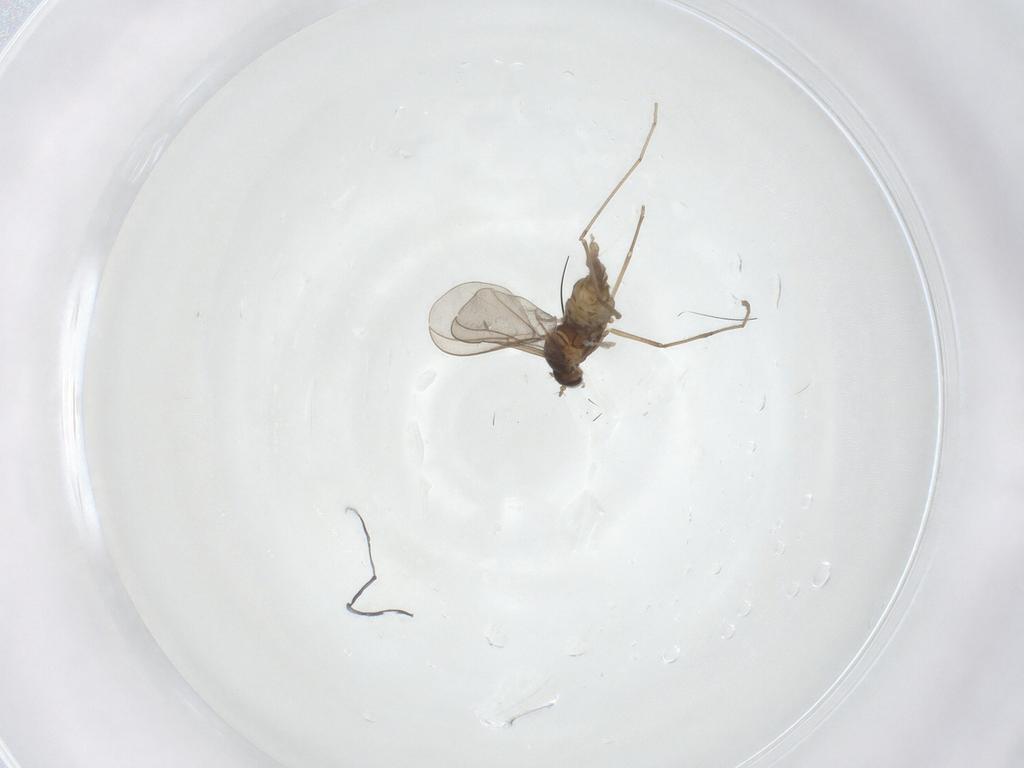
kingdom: Animalia
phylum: Arthropoda
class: Insecta
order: Diptera
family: Cecidomyiidae
